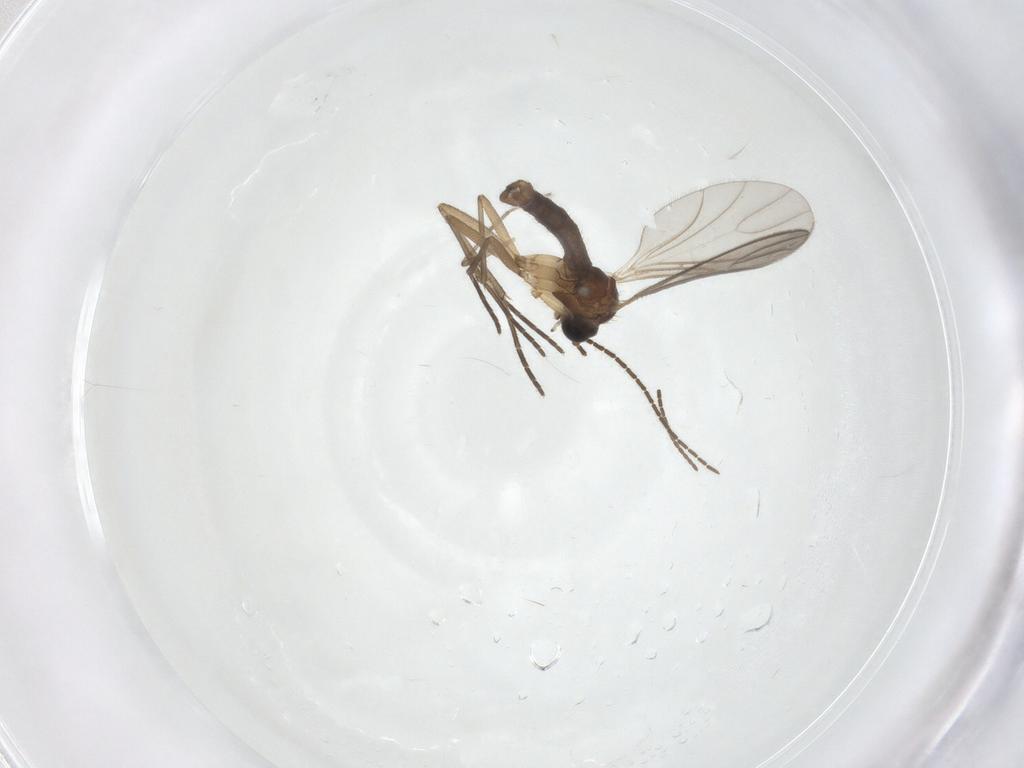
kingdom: Animalia
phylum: Arthropoda
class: Insecta
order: Diptera
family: Sciaridae
